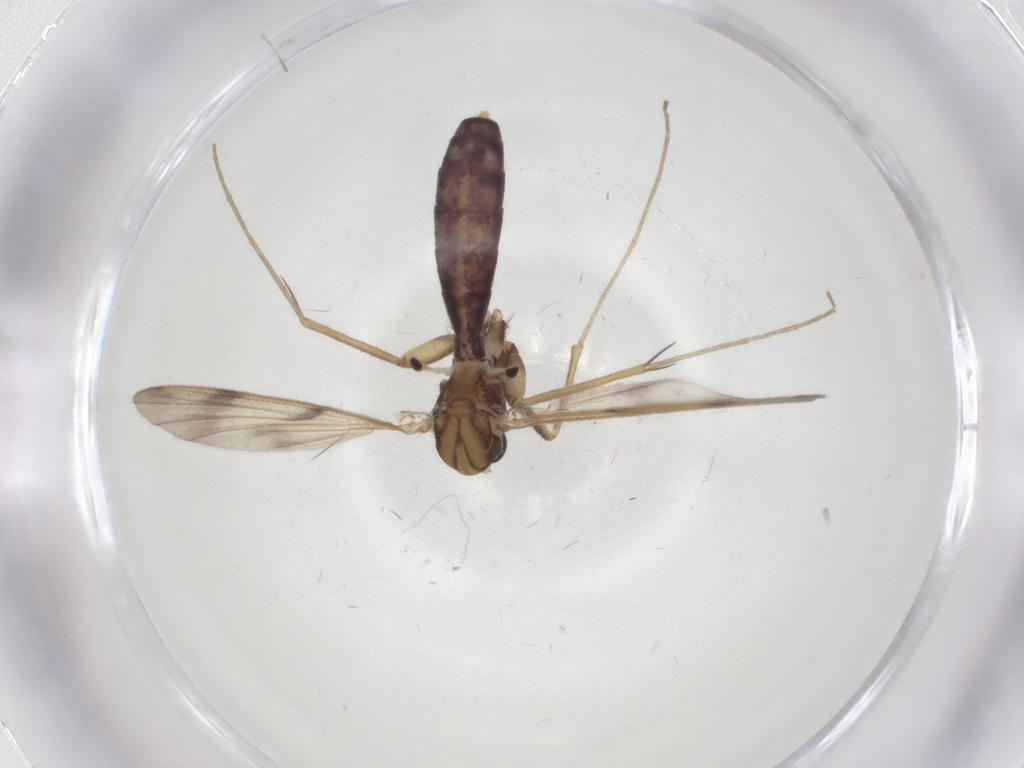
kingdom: Animalia
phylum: Arthropoda
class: Insecta
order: Diptera
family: Mycetophilidae
